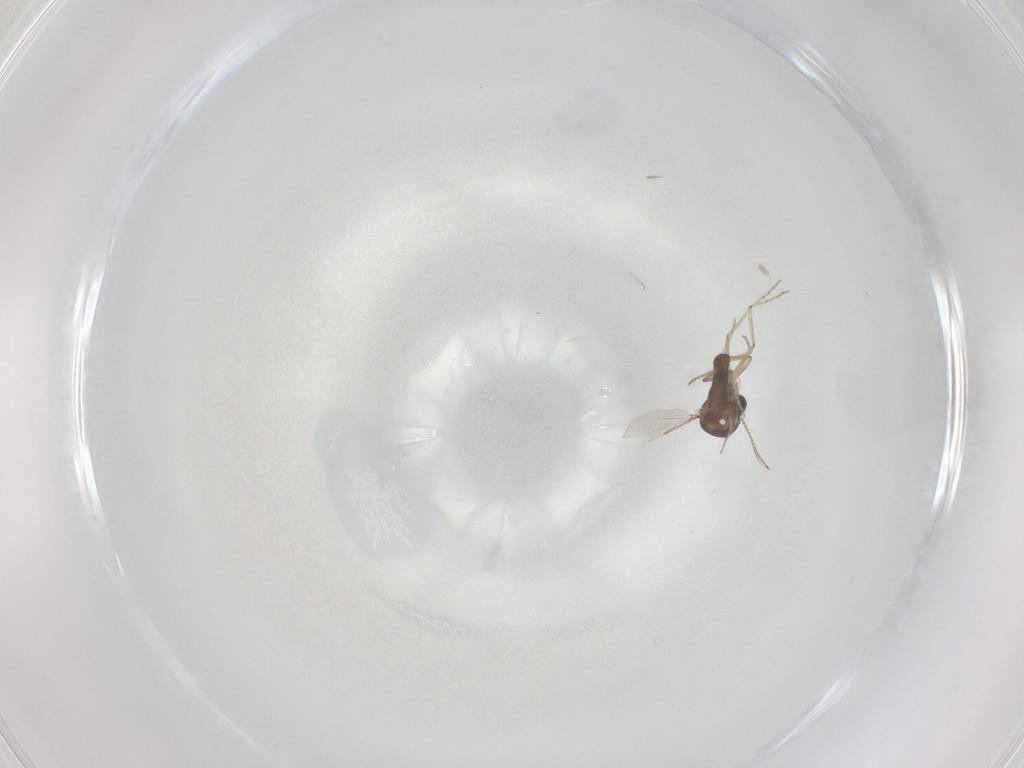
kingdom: Animalia
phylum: Arthropoda
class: Insecta
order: Diptera
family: Ceratopogonidae
